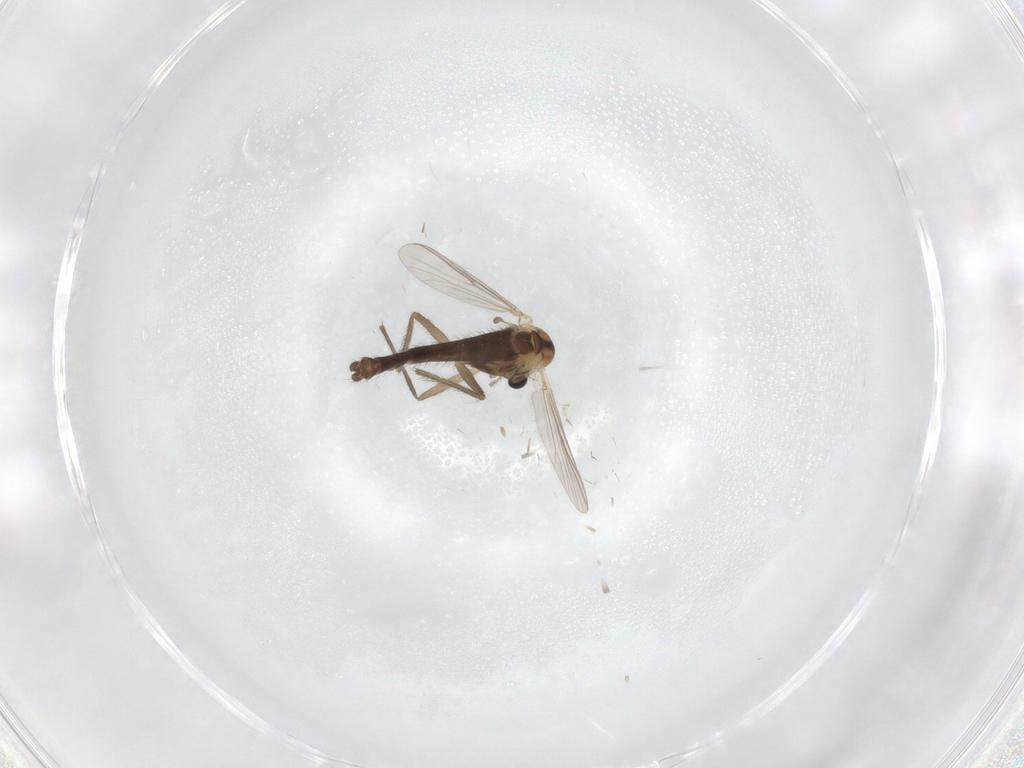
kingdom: Animalia
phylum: Arthropoda
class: Insecta
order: Diptera
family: Chironomidae
